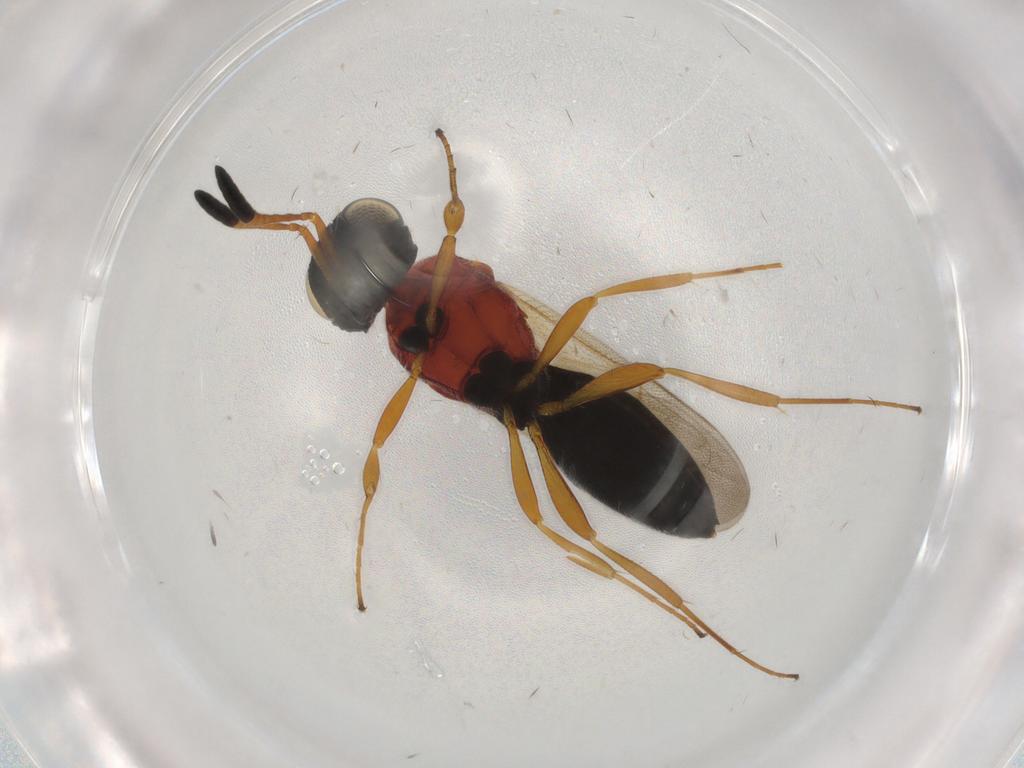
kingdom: Animalia
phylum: Arthropoda
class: Insecta
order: Hymenoptera
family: Scelionidae
